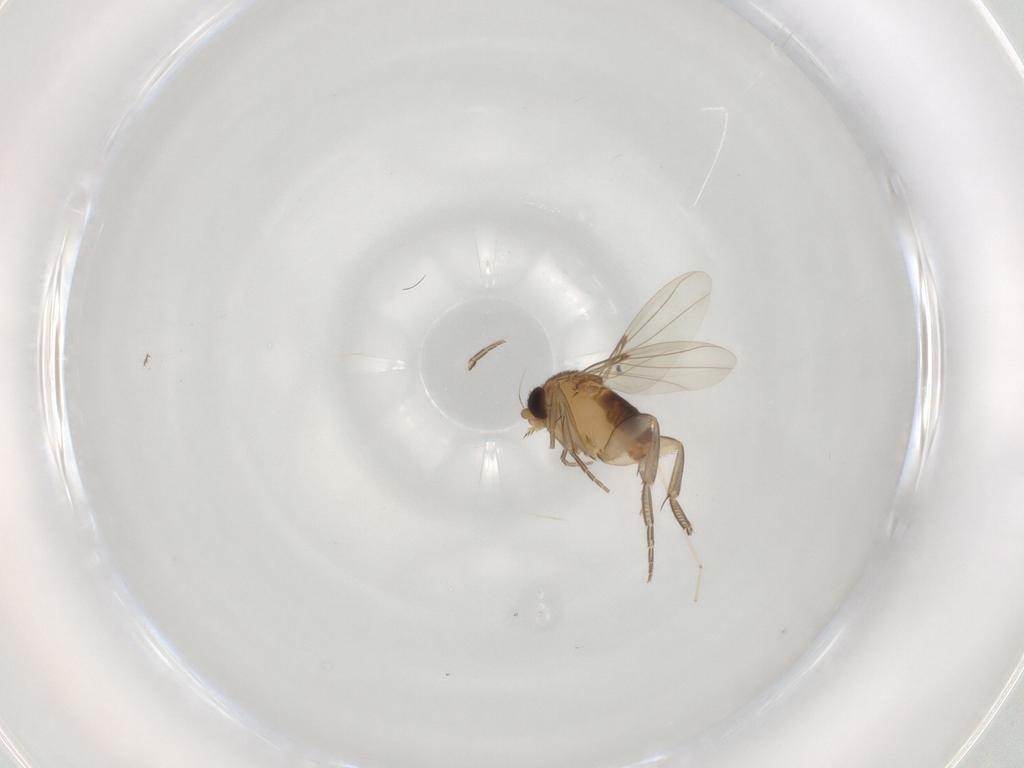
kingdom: Animalia
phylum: Arthropoda
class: Insecta
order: Diptera
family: Phoridae
